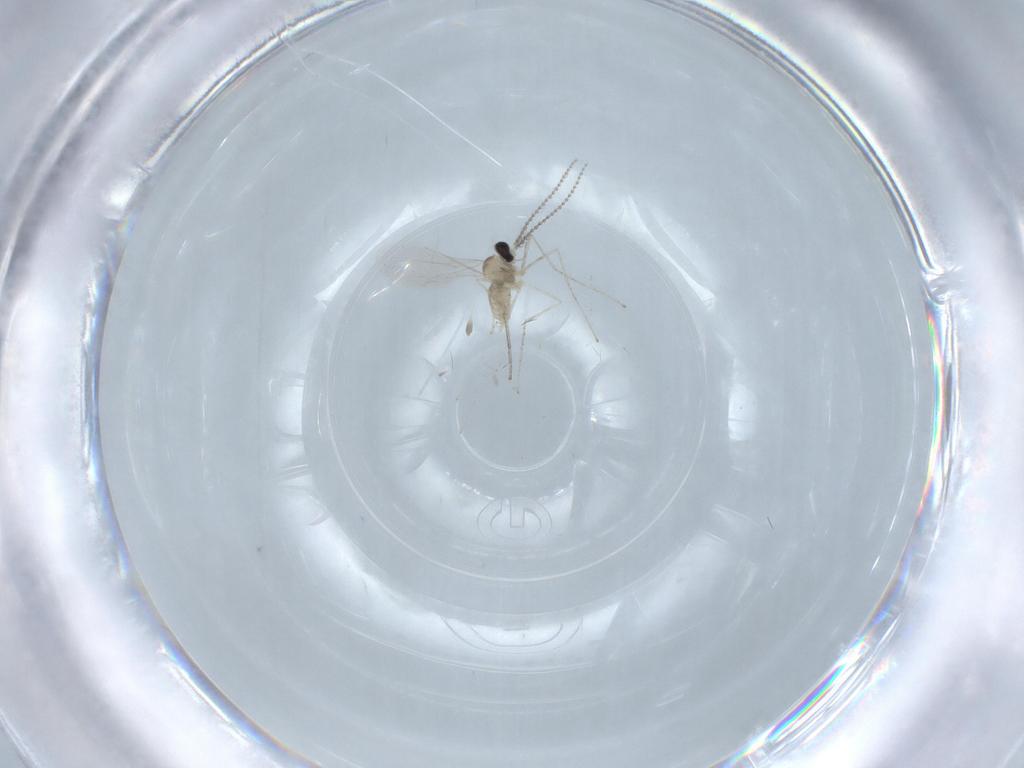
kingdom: Animalia
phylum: Arthropoda
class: Insecta
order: Diptera
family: Cecidomyiidae
